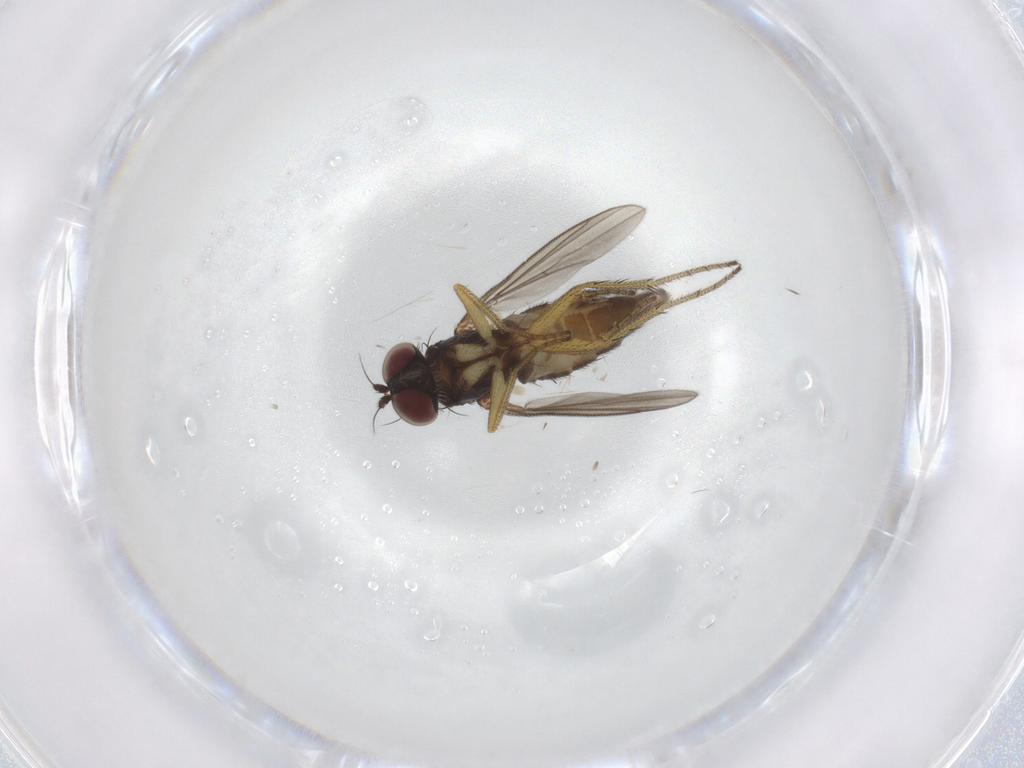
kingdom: Animalia
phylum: Arthropoda
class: Insecta
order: Diptera
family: Dolichopodidae
